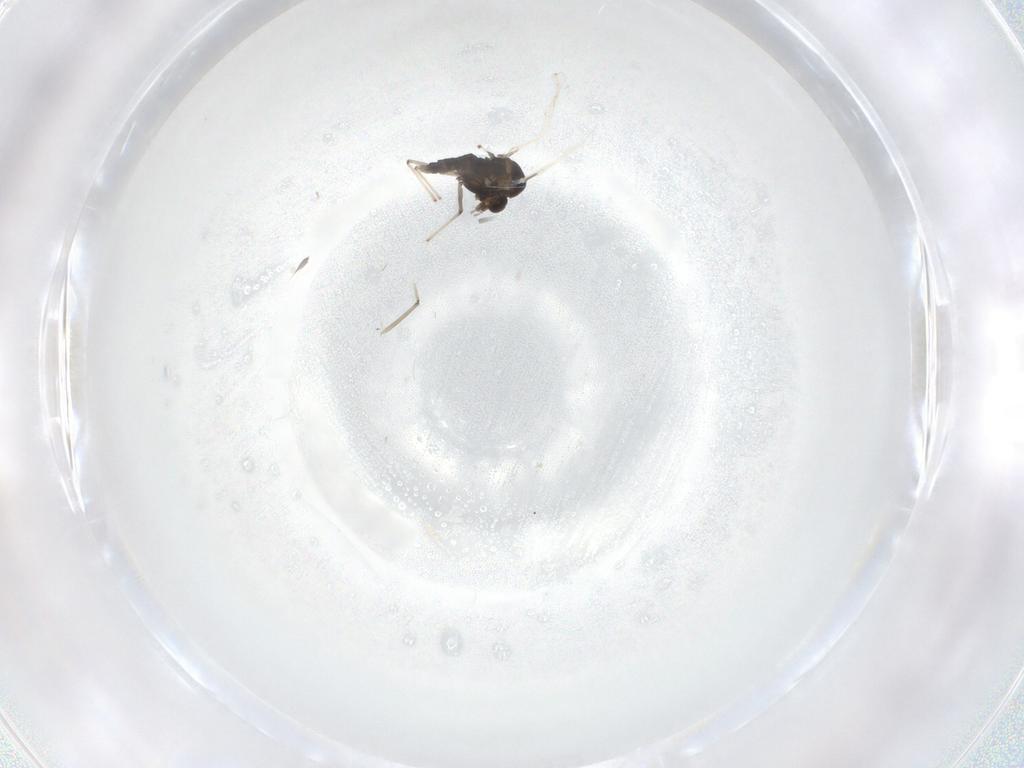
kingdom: Animalia
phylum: Arthropoda
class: Insecta
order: Diptera
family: Chironomidae
